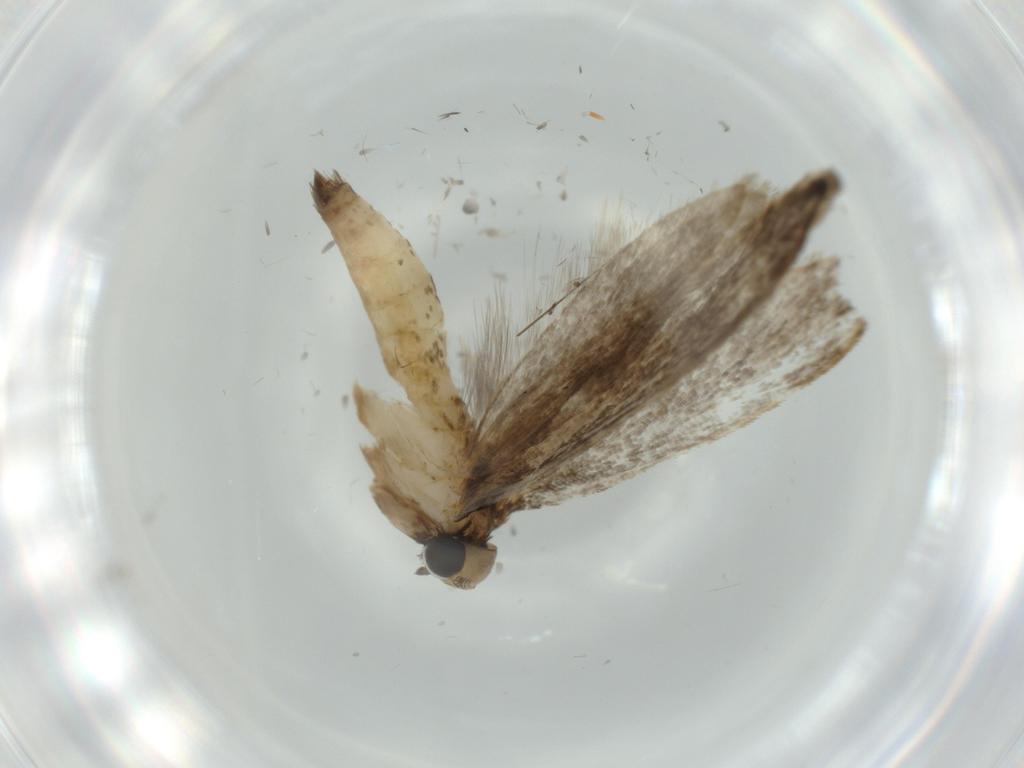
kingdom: Animalia
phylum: Arthropoda
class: Insecta
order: Lepidoptera
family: Tineidae
